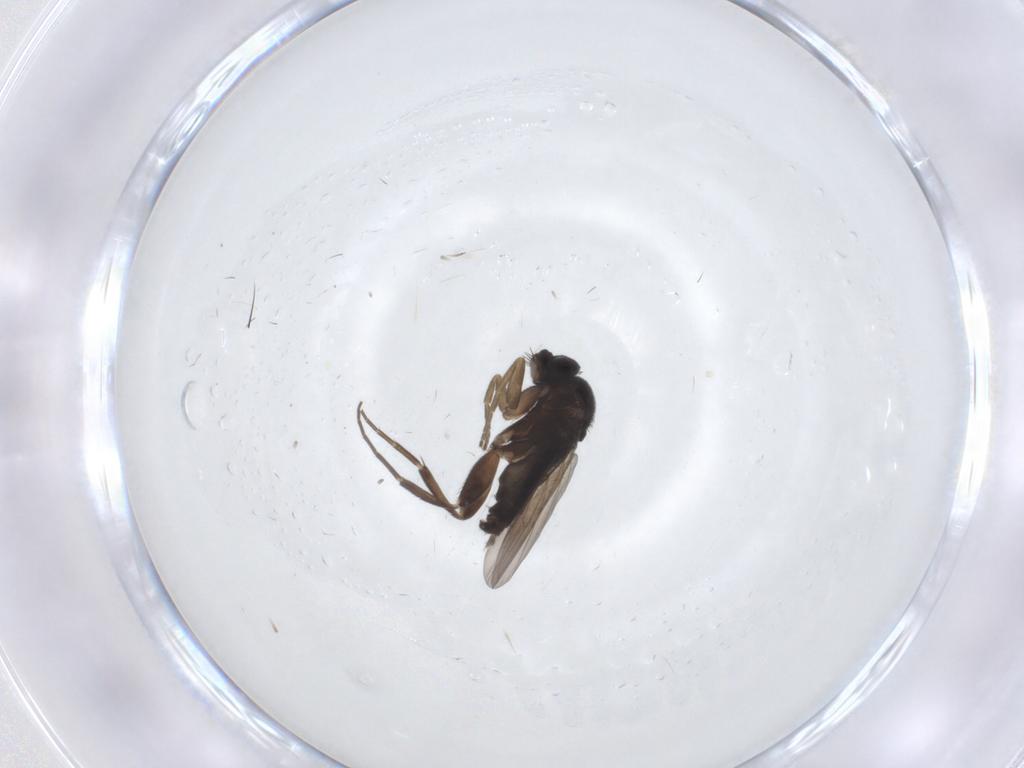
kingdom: Animalia
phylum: Arthropoda
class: Insecta
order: Diptera
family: Phoridae
